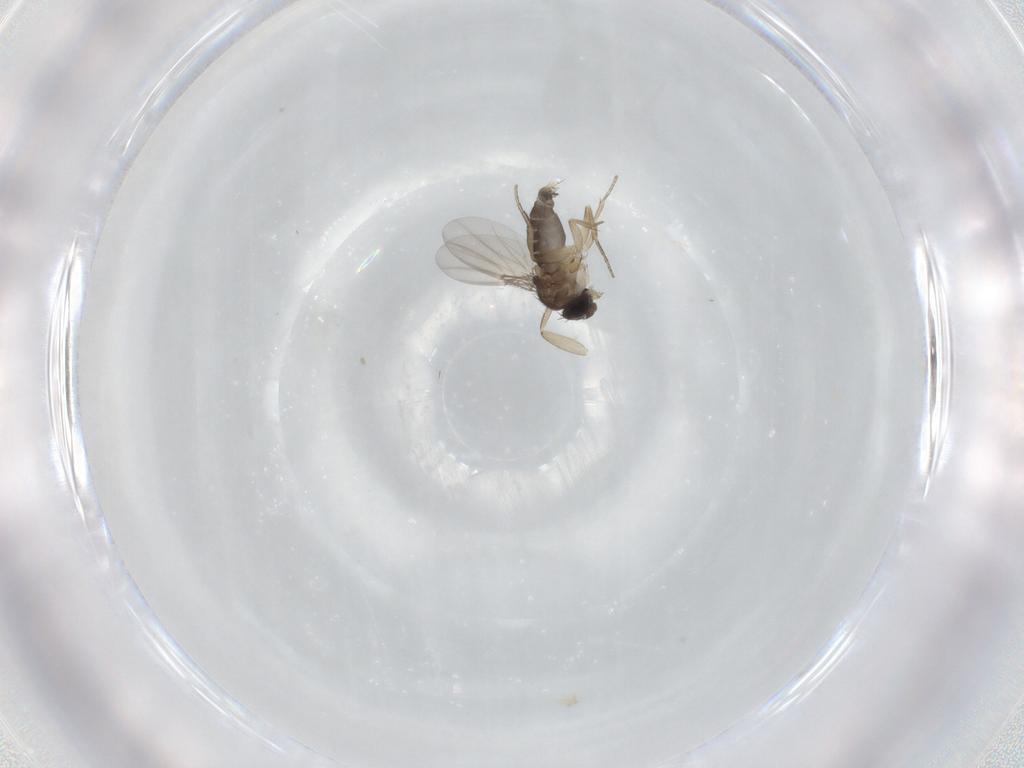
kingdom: Animalia
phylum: Arthropoda
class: Insecta
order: Diptera
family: Phoridae
